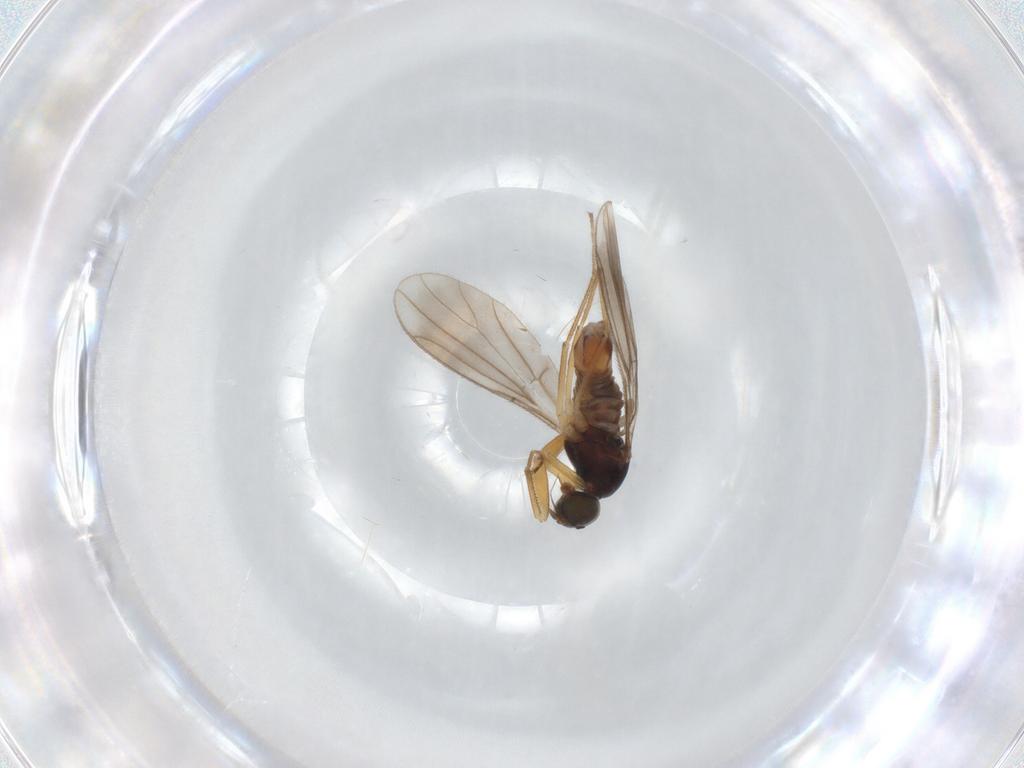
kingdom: Animalia
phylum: Arthropoda
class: Insecta
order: Diptera
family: Empididae
